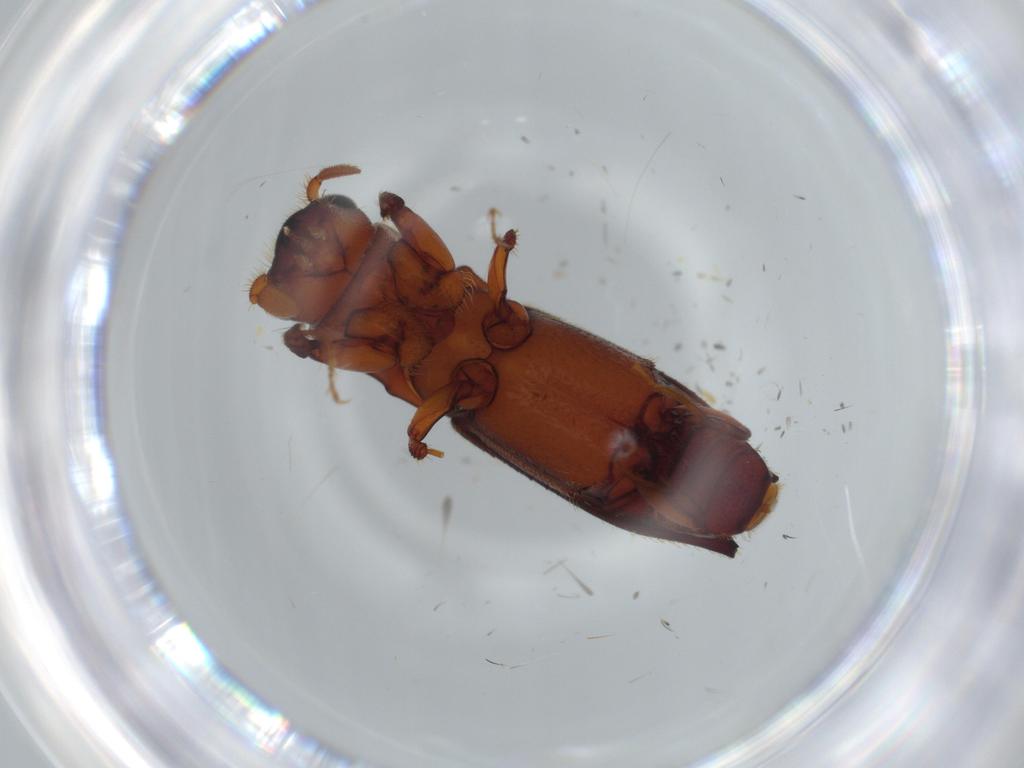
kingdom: Animalia
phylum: Arthropoda
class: Insecta
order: Coleoptera
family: Curculionidae
